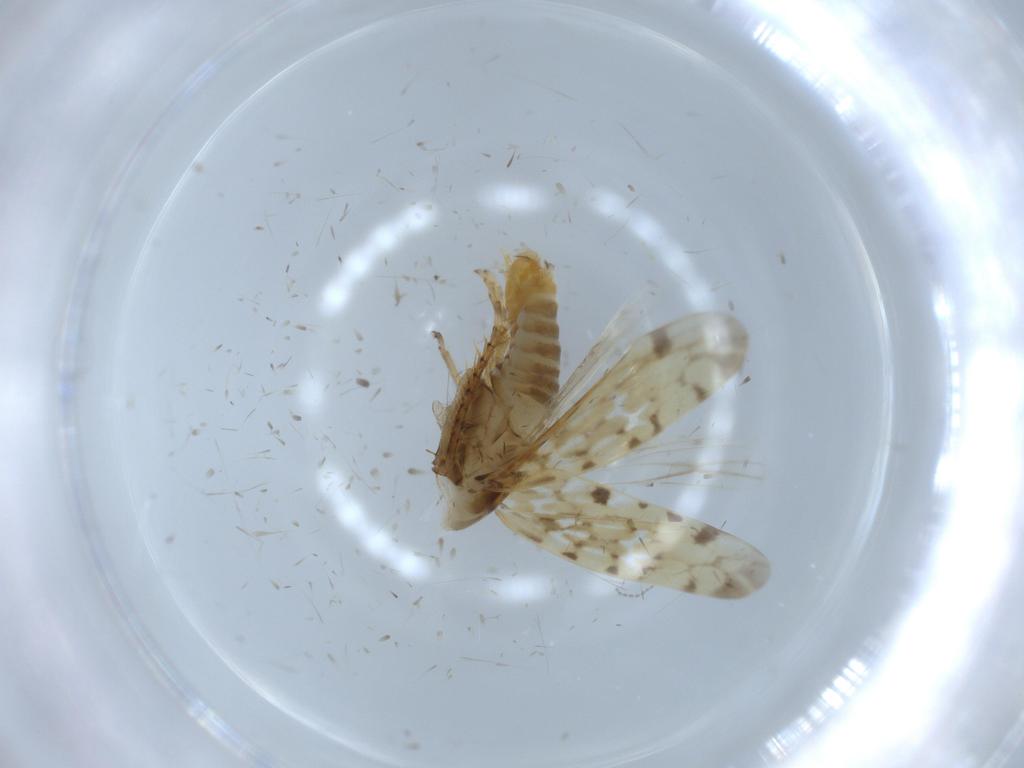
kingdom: Animalia
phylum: Arthropoda
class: Insecta
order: Hemiptera
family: Cicadellidae
